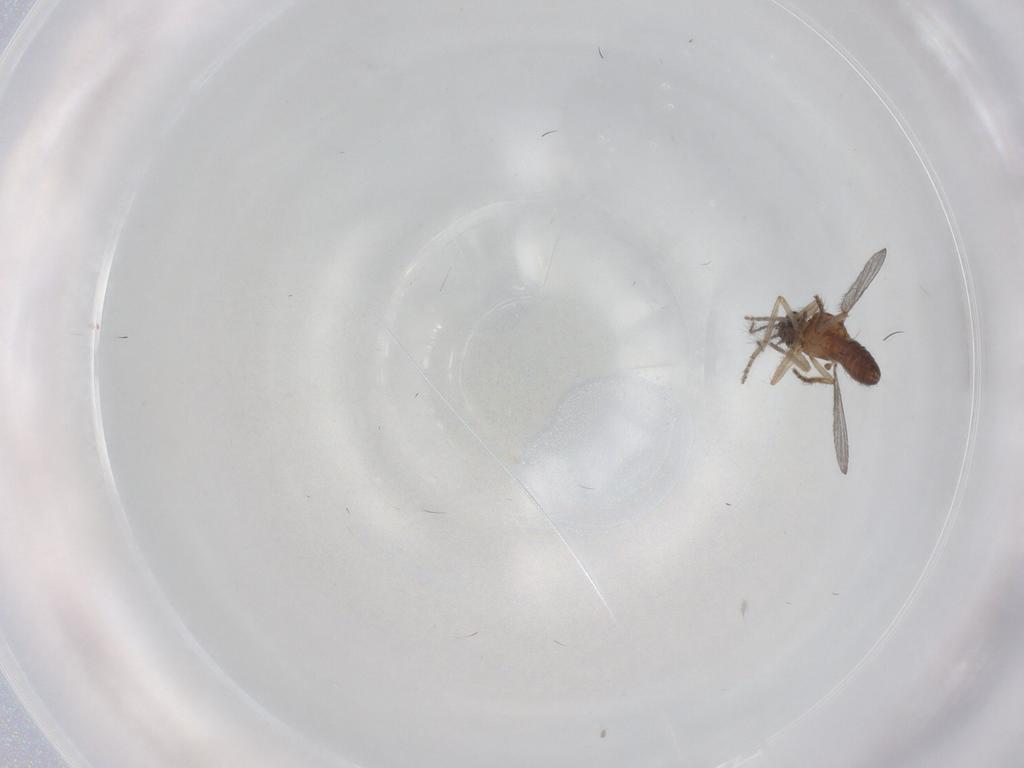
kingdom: Animalia
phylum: Arthropoda
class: Insecta
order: Diptera
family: Ceratopogonidae
